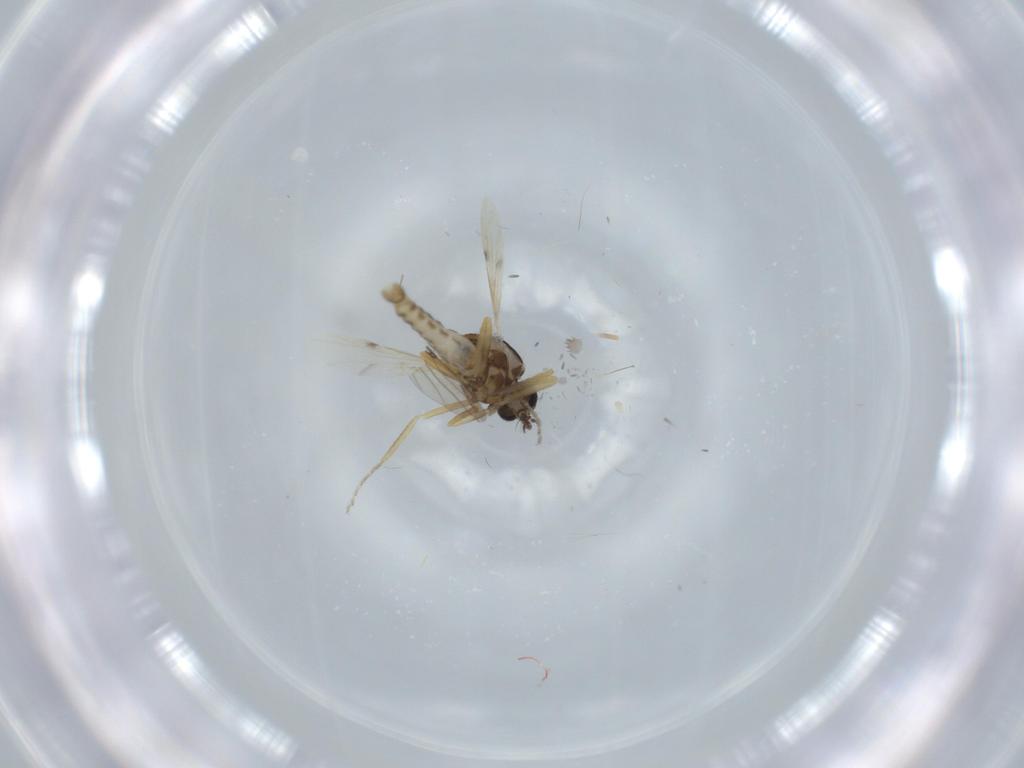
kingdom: Animalia
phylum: Arthropoda
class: Insecta
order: Diptera
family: Ceratopogonidae
